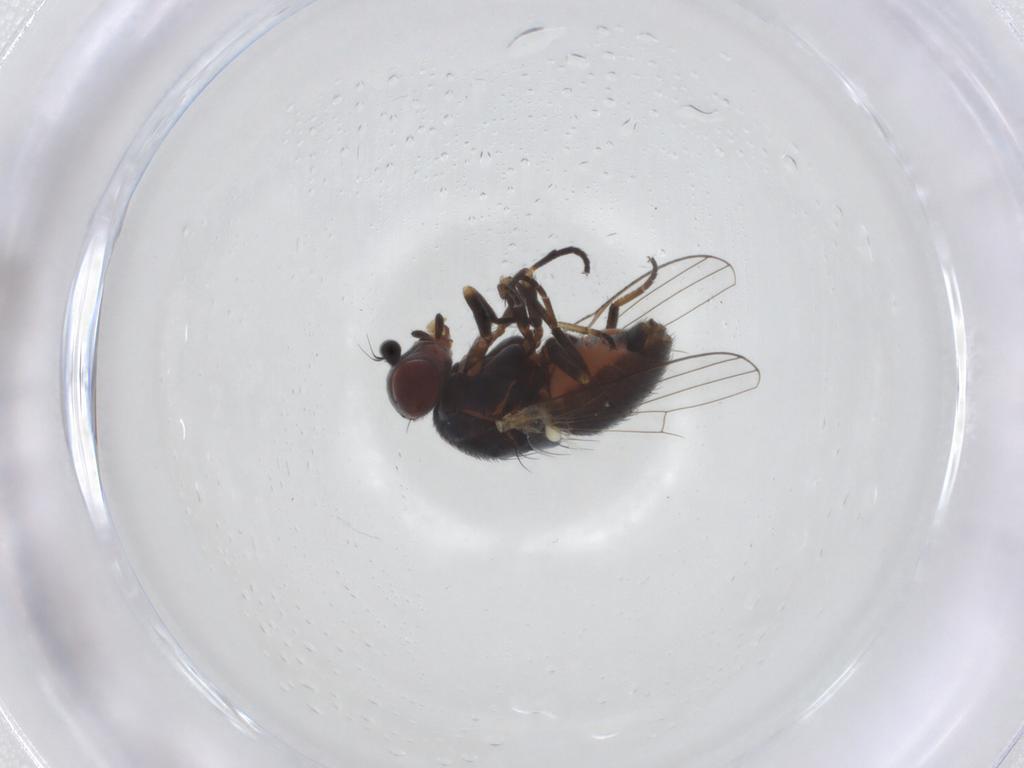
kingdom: Animalia
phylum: Arthropoda
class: Insecta
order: Diptera
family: Chamaemyiidae
